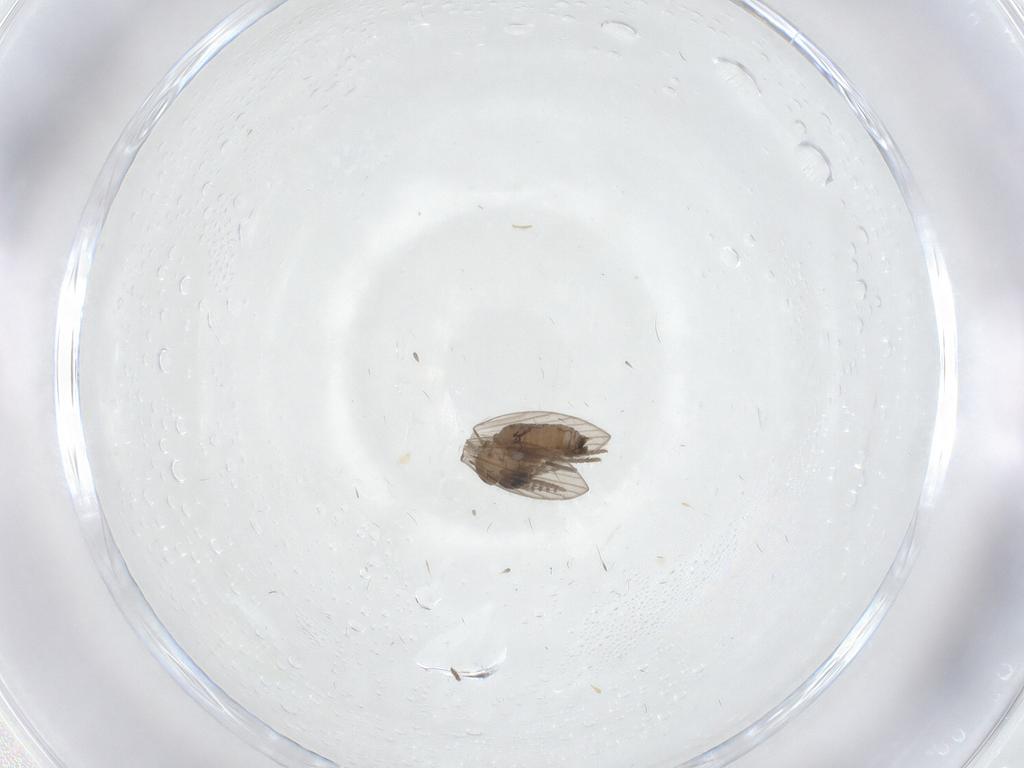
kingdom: Animalia
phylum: Arthropoda
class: Insecta
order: Diptera
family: Psychodidae
